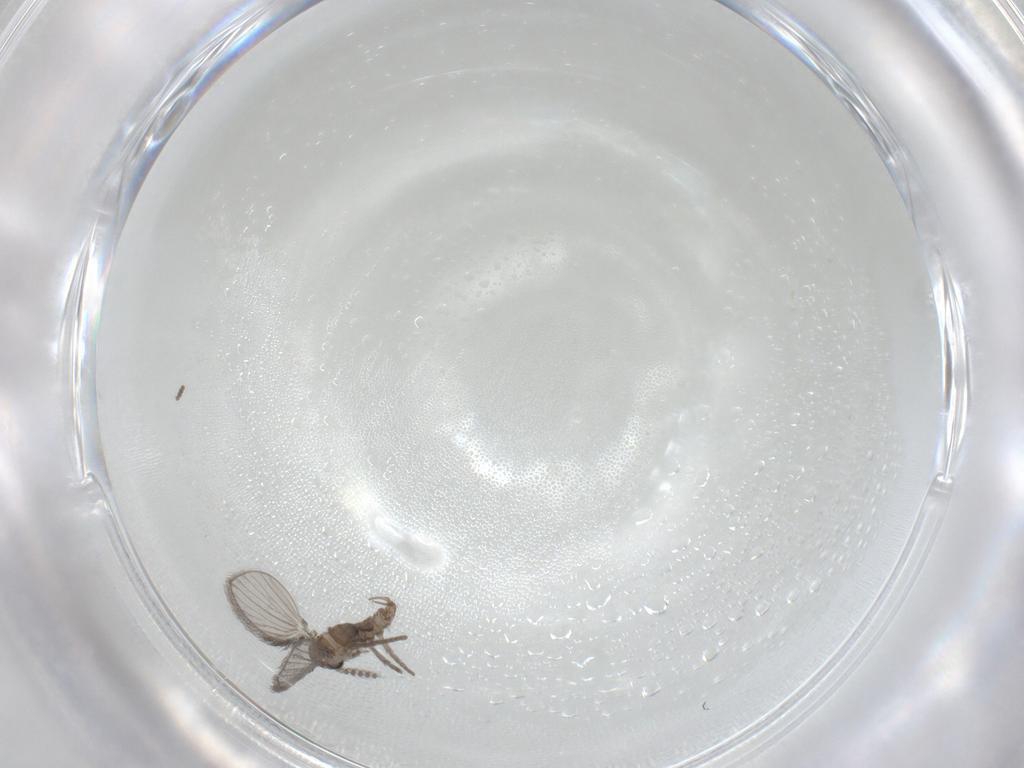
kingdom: Animalia
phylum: Arthropoda
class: Insecta
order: Diptera
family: Psychodidae
